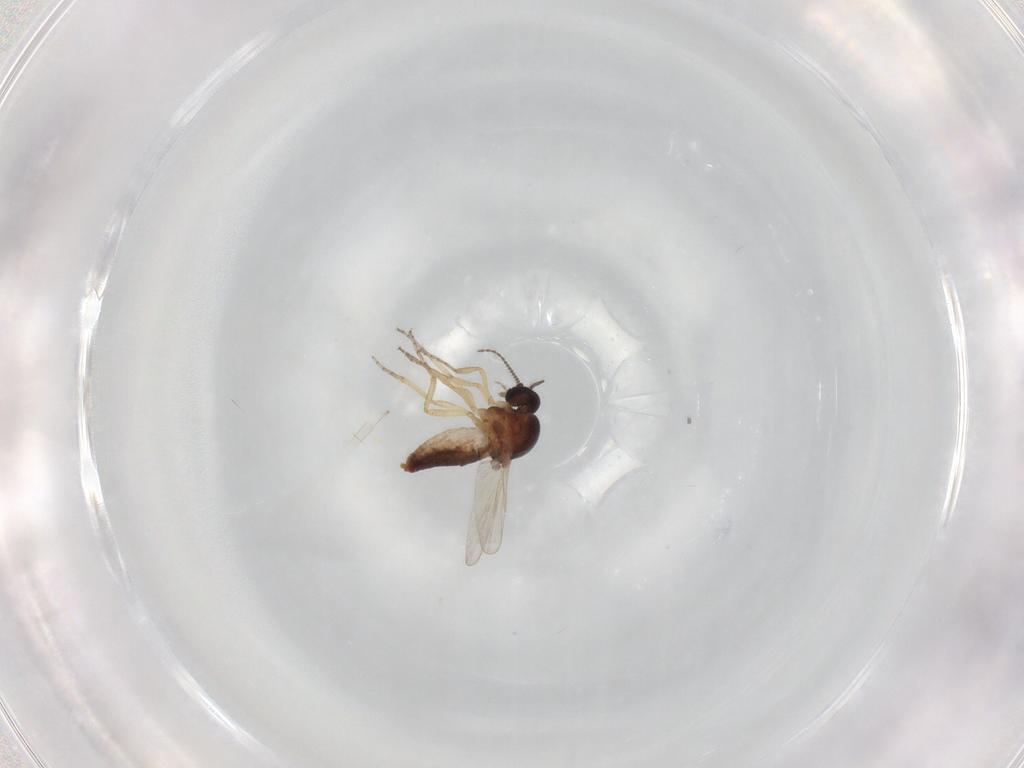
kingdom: Animalia
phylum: Arthropoda
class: Insecta
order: Diptera
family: Ceratopogonidae
